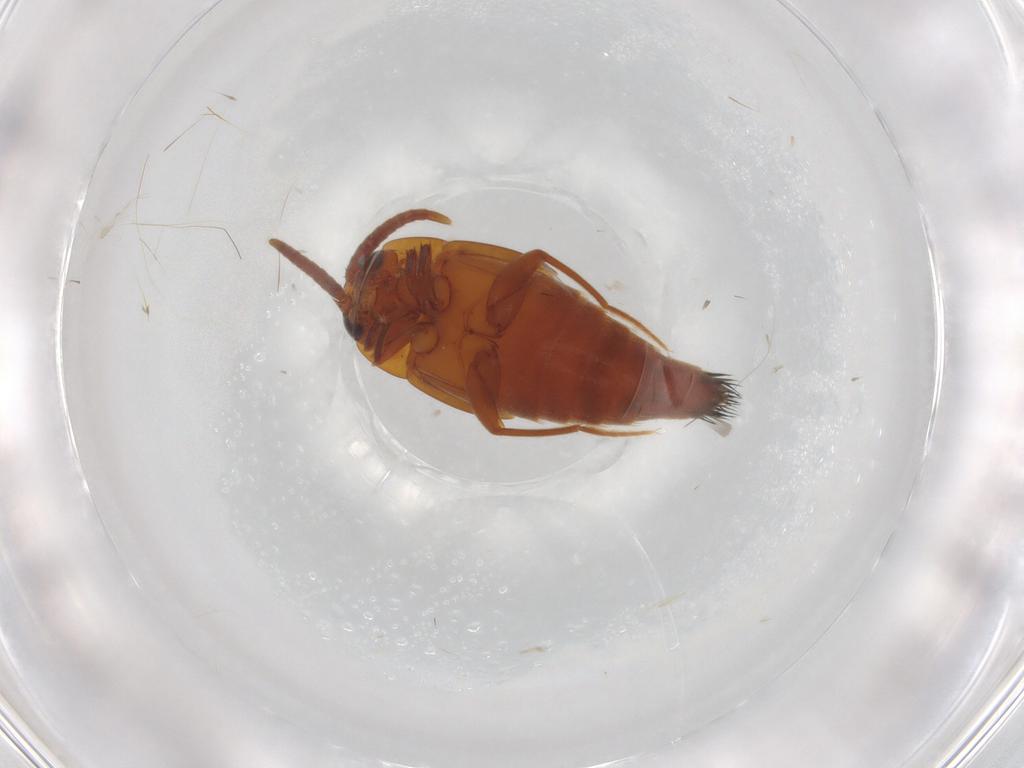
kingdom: Animalia
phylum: Arthropoda
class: Insecta
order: Coleoptera
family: Staphylinidae
